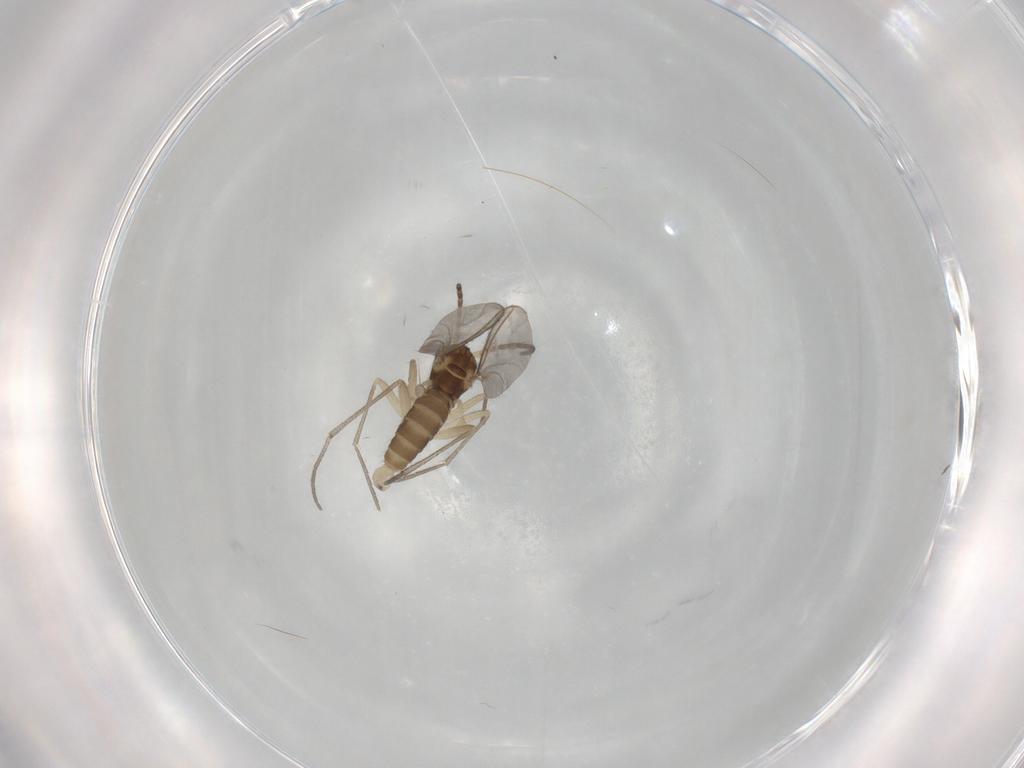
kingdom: Animalia
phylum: Arthropoda
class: Insecta
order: Diptera
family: Sciaridae
